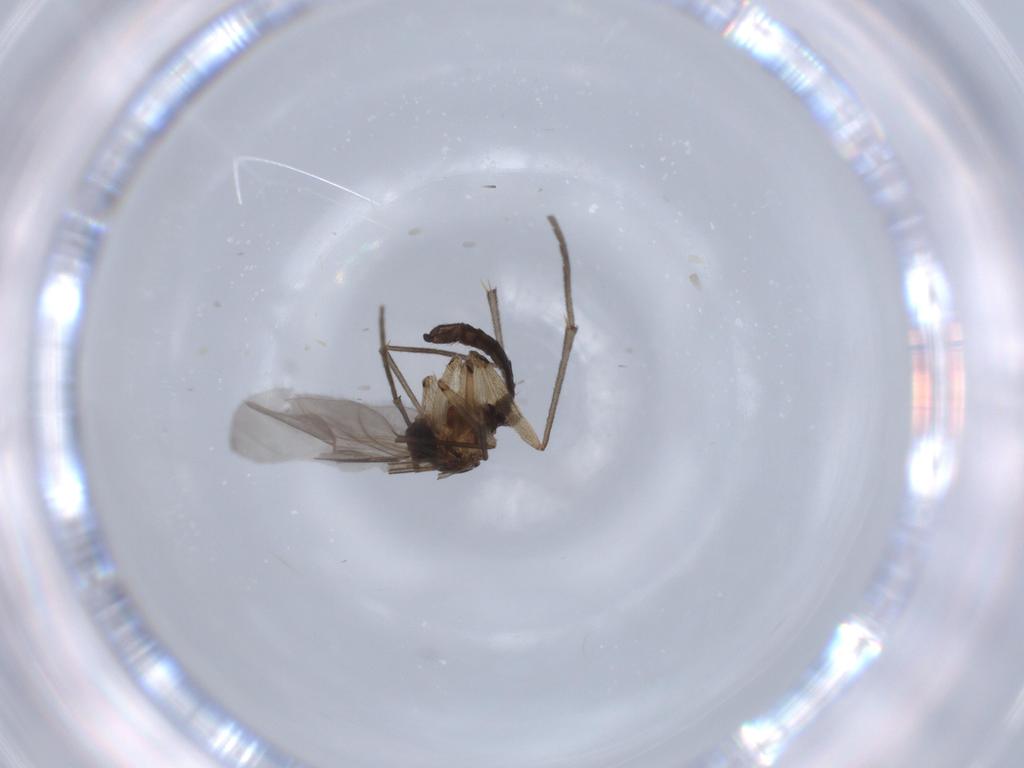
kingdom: Animalia
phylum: Arthropoda
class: Insecta
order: Diptera
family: Sciaridae
